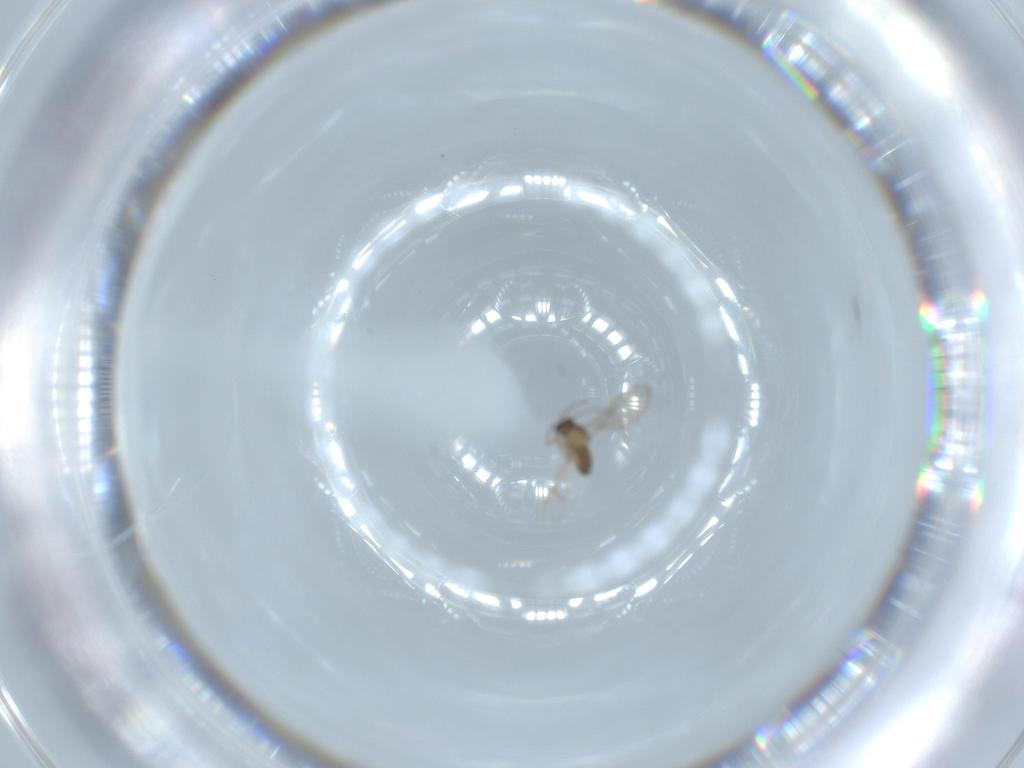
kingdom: Animalia
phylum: Arthropoda
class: Insecta
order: Diptera
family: Cecidomyiidae
